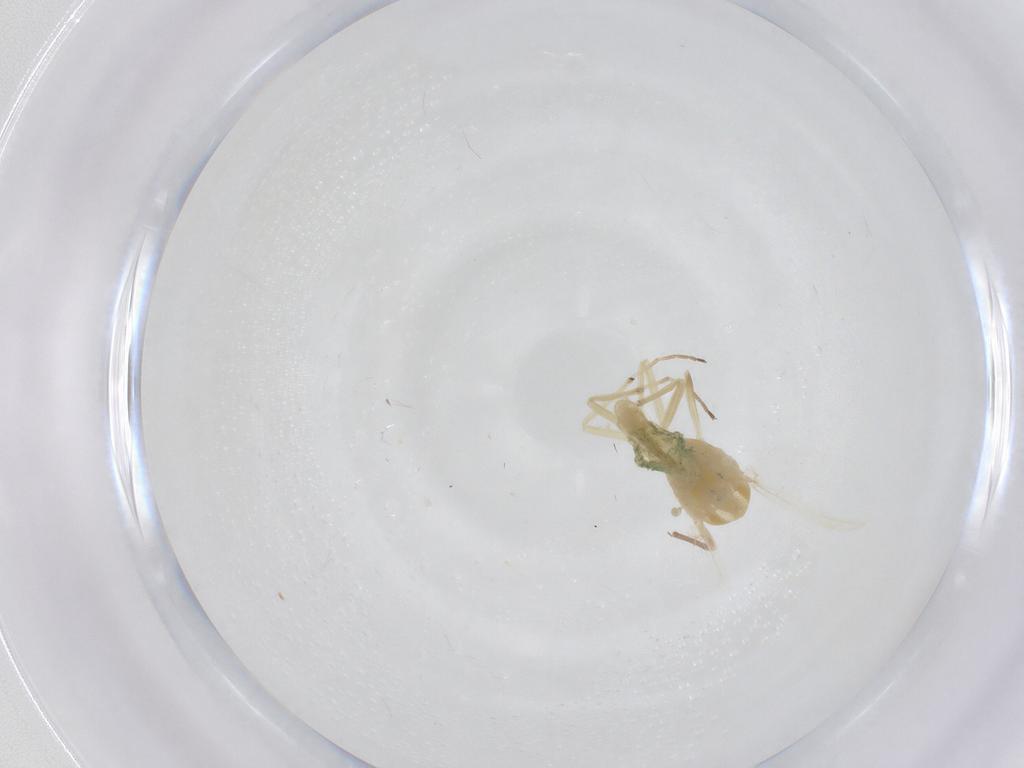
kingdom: Animalia
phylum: Arthropoda
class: Insecta
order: Diptera
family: Chironomidae
